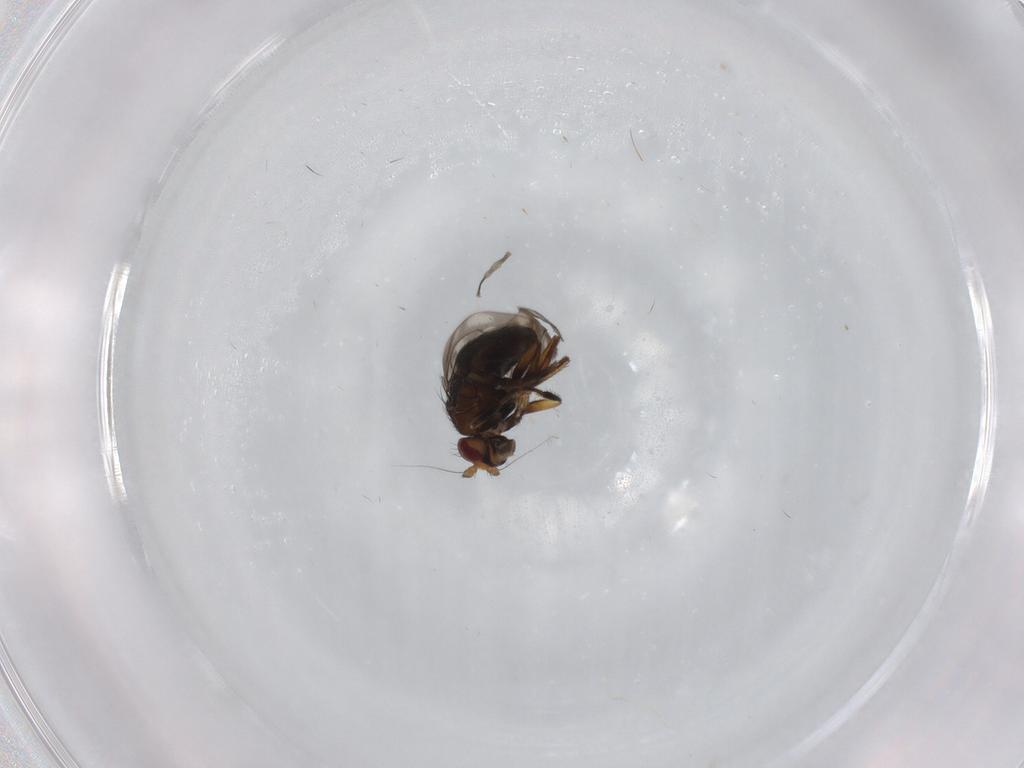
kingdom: Animalia
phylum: Arthropoda
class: Insecta
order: Diptera
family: Sphaeroceridae
